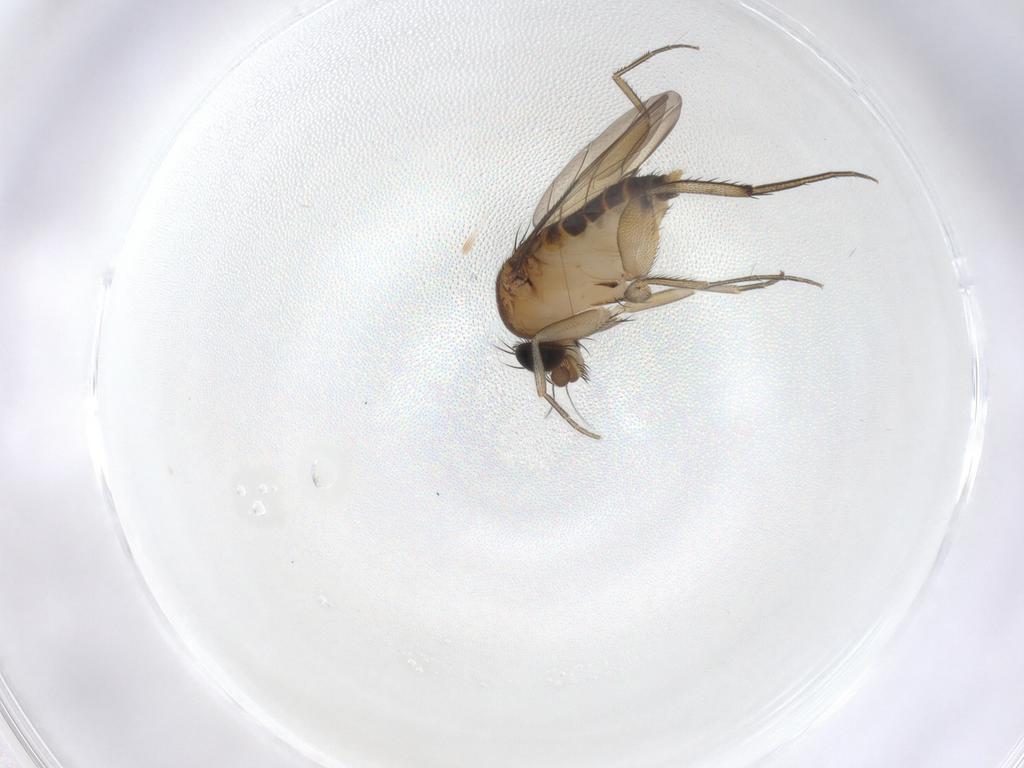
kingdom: Animalia
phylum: Arthropoda
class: Insecta
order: Diptera
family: Phoridae
